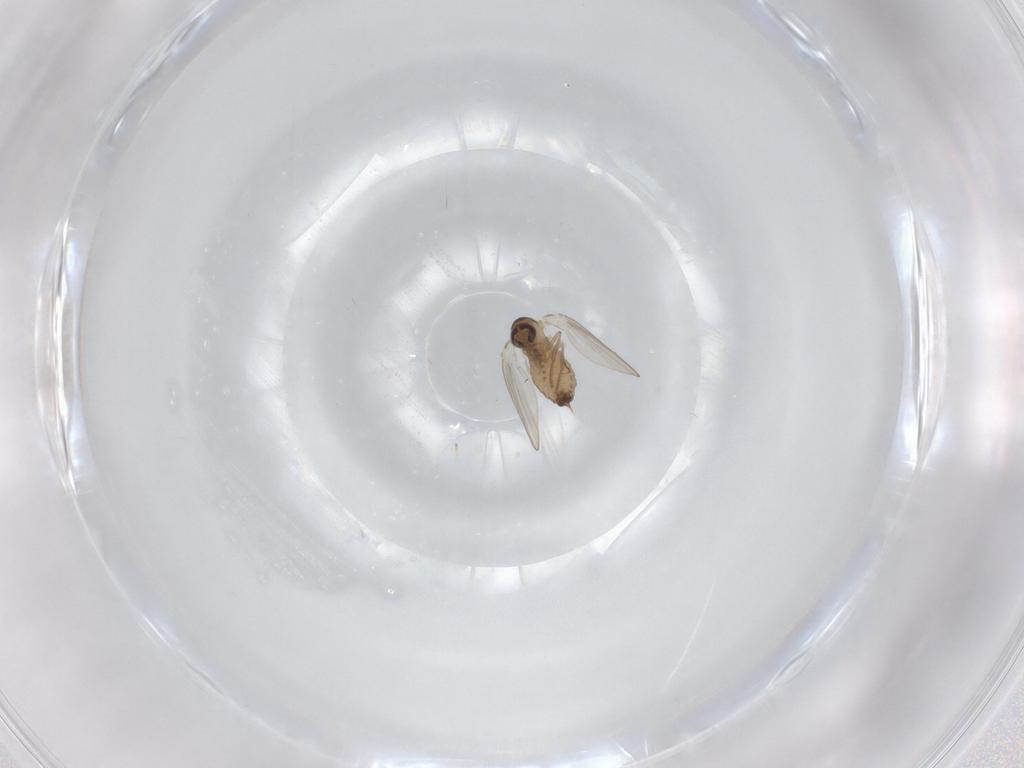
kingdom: Animalia
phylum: Arthropoda
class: Insecta
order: Diptera
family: Psychodidae
